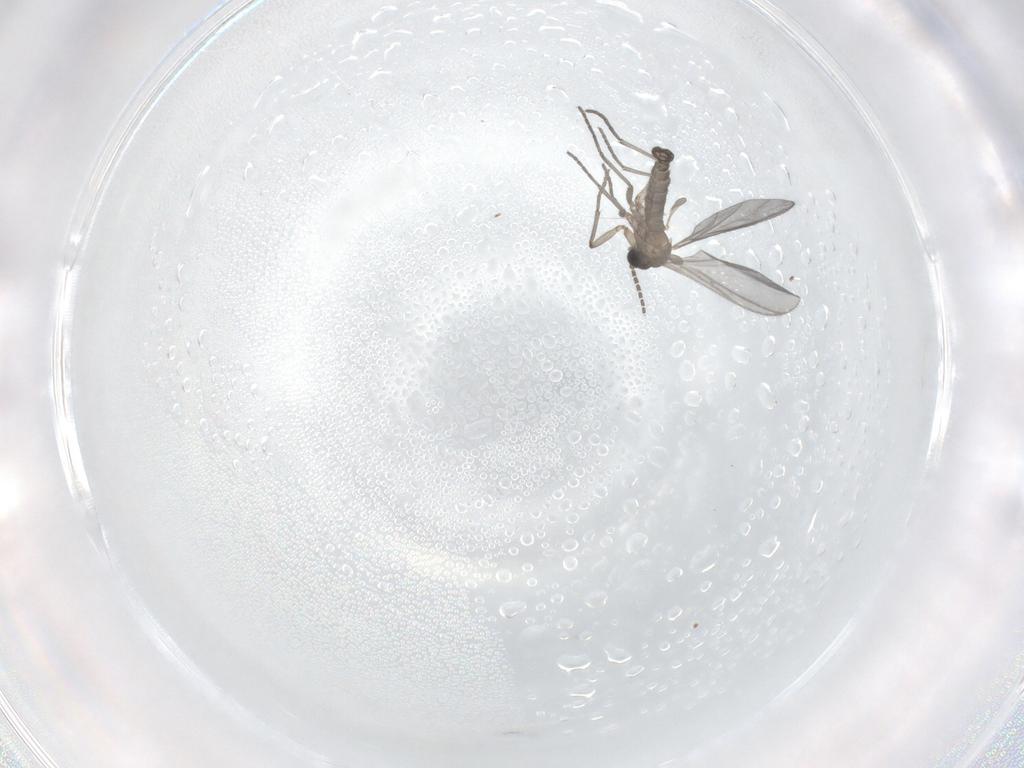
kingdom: Animalia
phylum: Arthropoda
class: Insecta
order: Diptera
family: Sciaridae
